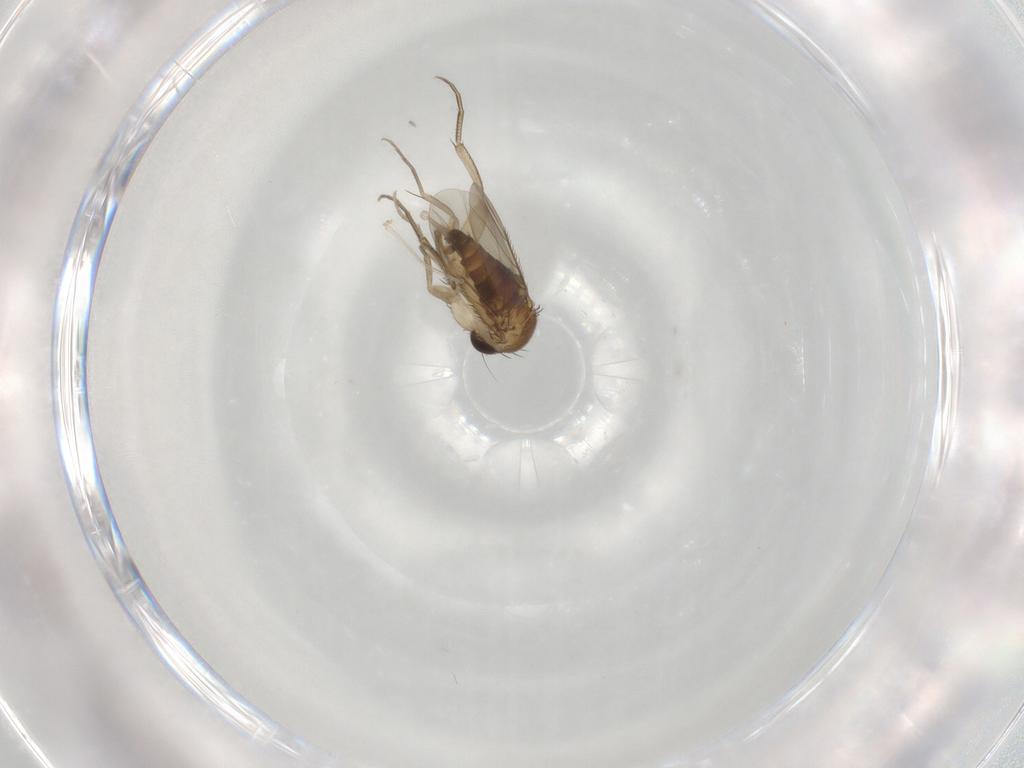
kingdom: Animalia
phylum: Arthropoda
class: Insecta
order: Diptera
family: Phoridae
